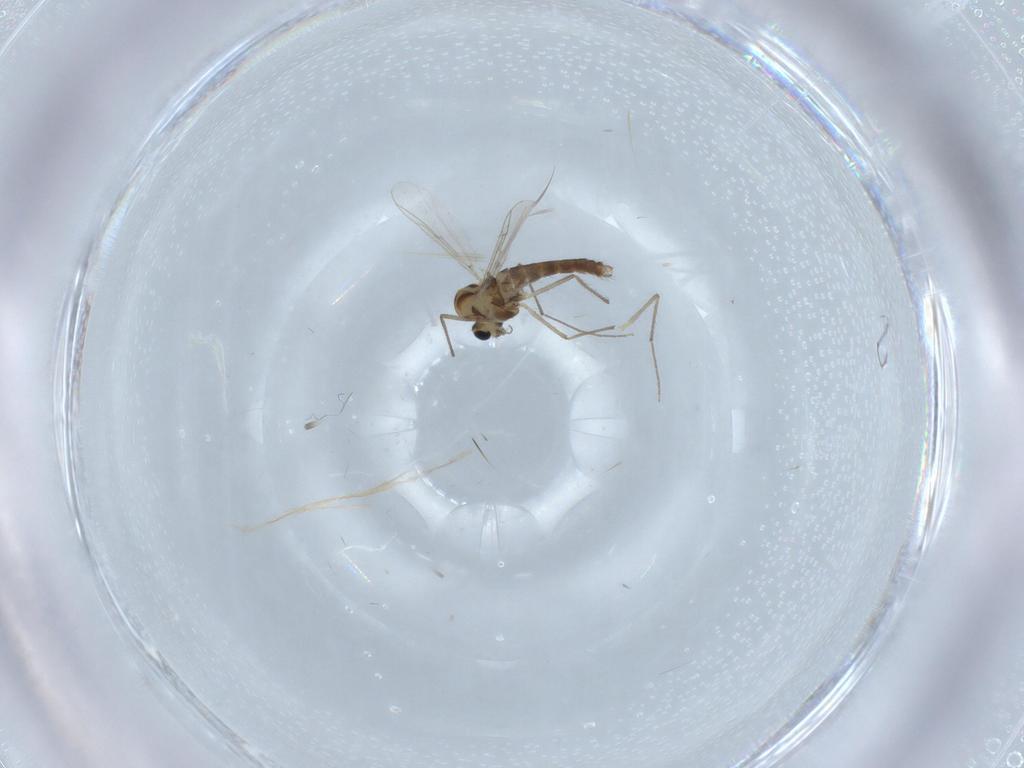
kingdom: Animalia
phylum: Arthropoda
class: Insecta
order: Diptera
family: Chironomidae
